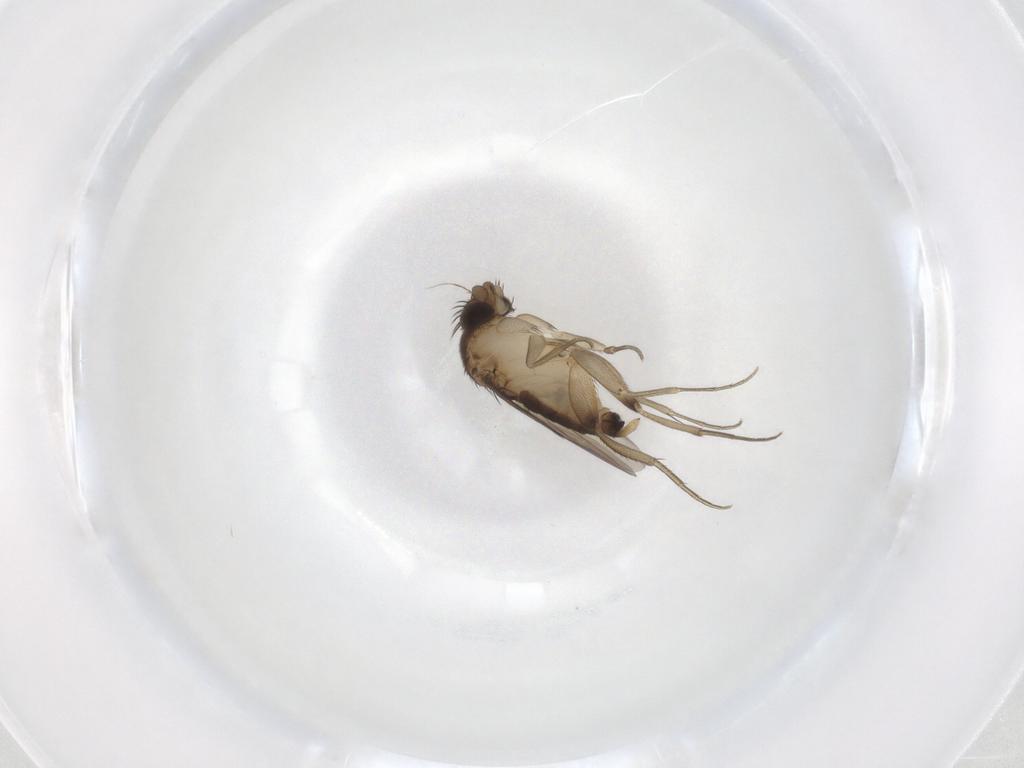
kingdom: Animalia
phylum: Arthropoda
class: Insecta
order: Diptera
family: Phoridae
